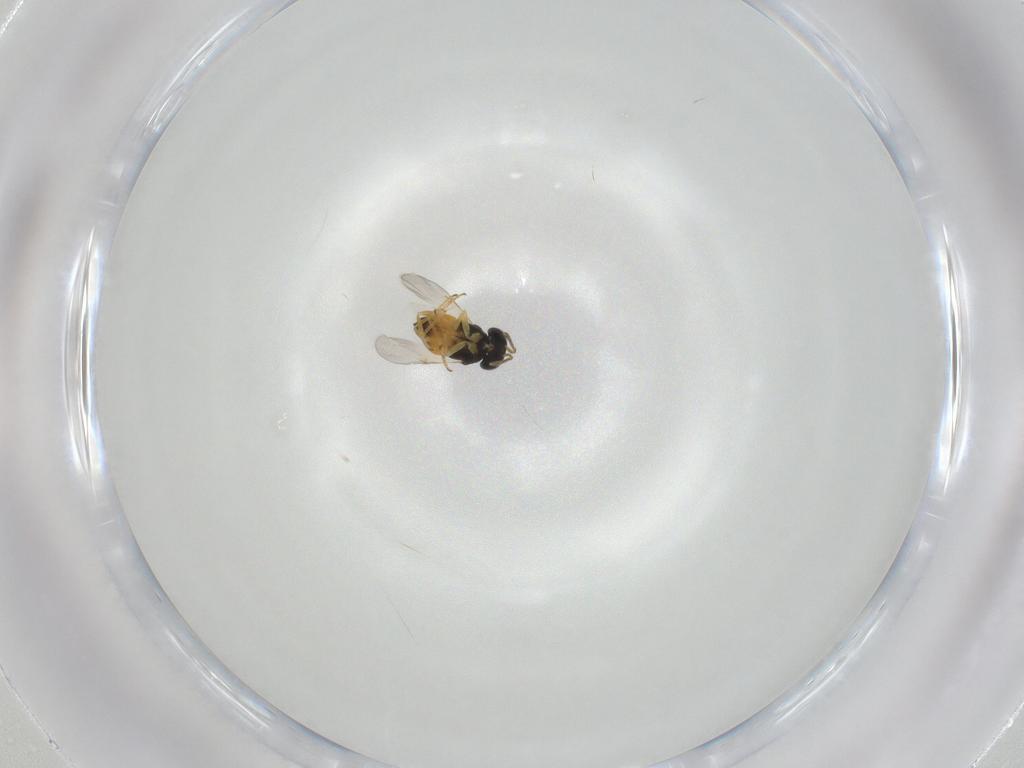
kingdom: Animalia
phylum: Arthropoda
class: Insecta
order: Hymenoptera
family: Encyrtidae
